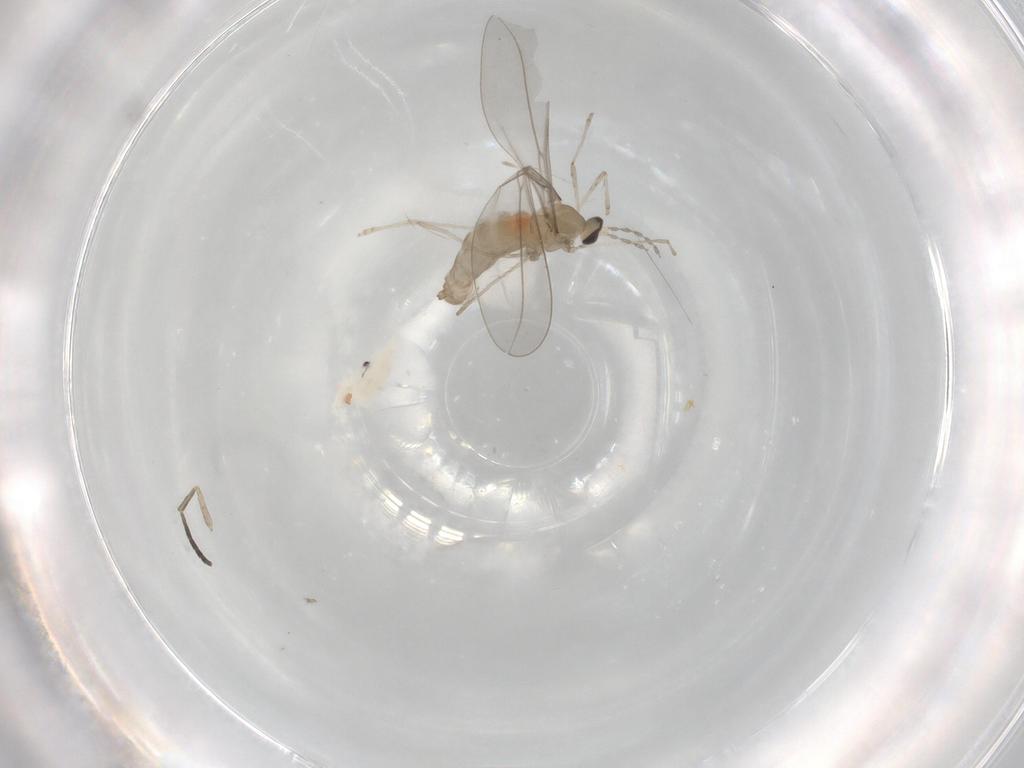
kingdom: Animalia
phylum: Arthropoda
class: Insecta
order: Diptera
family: Cecidomyiidae
